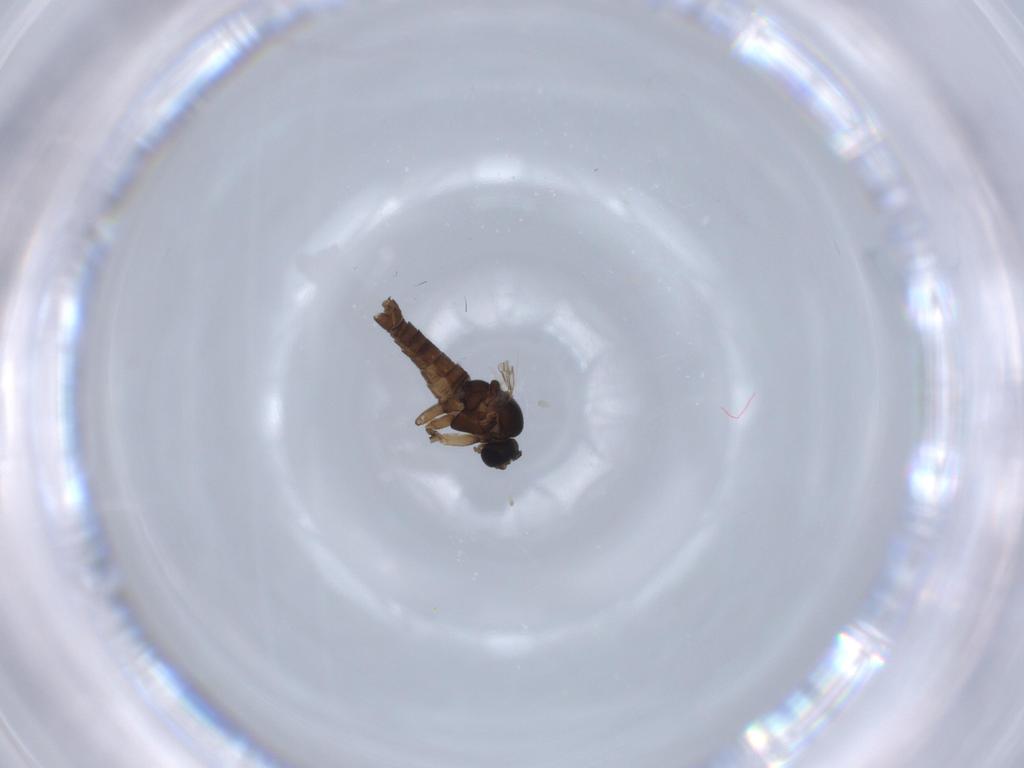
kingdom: Animalia
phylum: Arthropoda
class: Insecta
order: Diptera
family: Sciaridae
